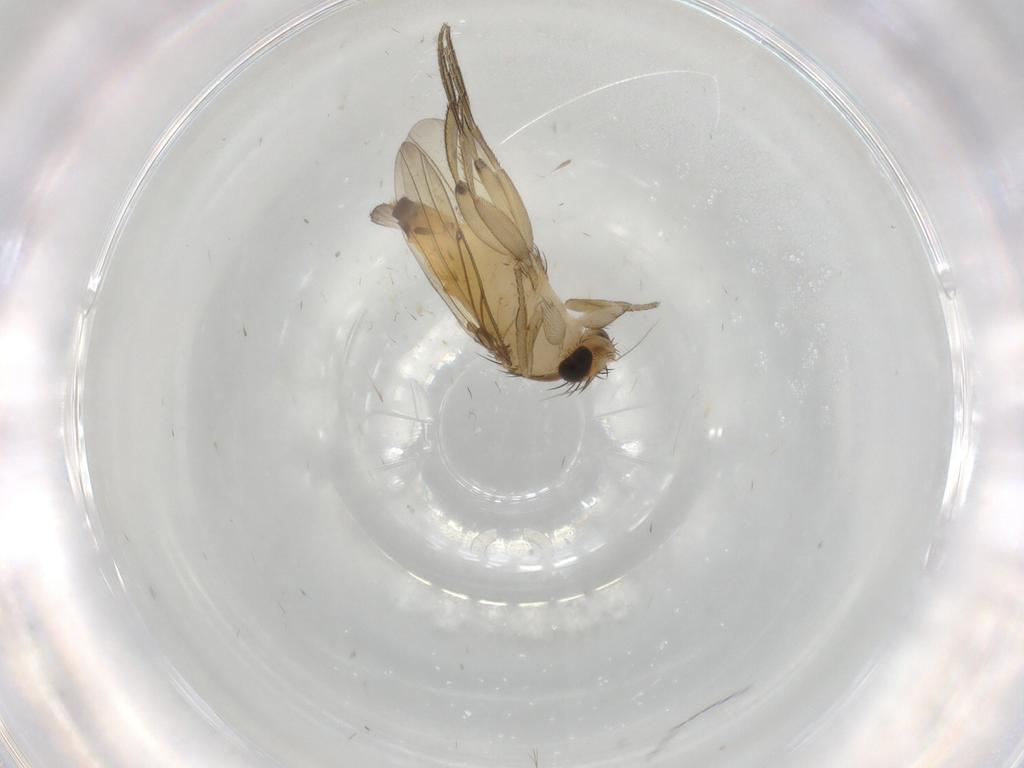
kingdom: Animalia
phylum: Arthropoda
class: Insecta
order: Diptera
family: Phoridae
